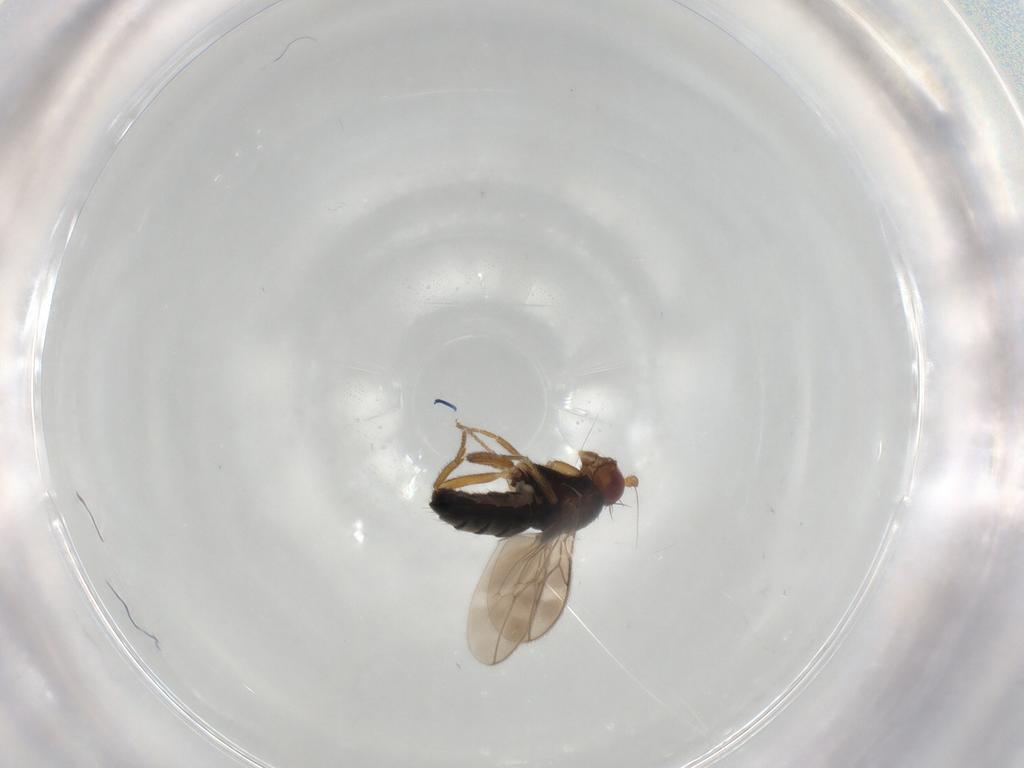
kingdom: Animalia
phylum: Arthropoda
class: Insecta
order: Diptera
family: Sphaeroceridae
